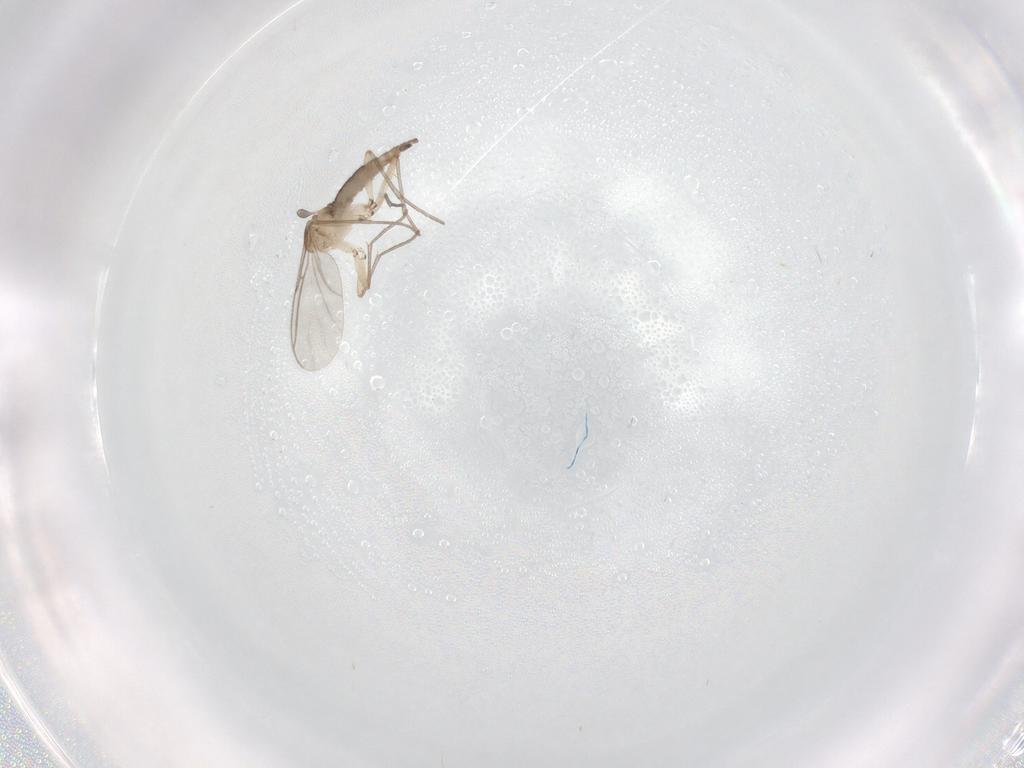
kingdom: Animalia
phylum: Arthropoda
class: Insecta
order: Diptera
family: Sciaridae
